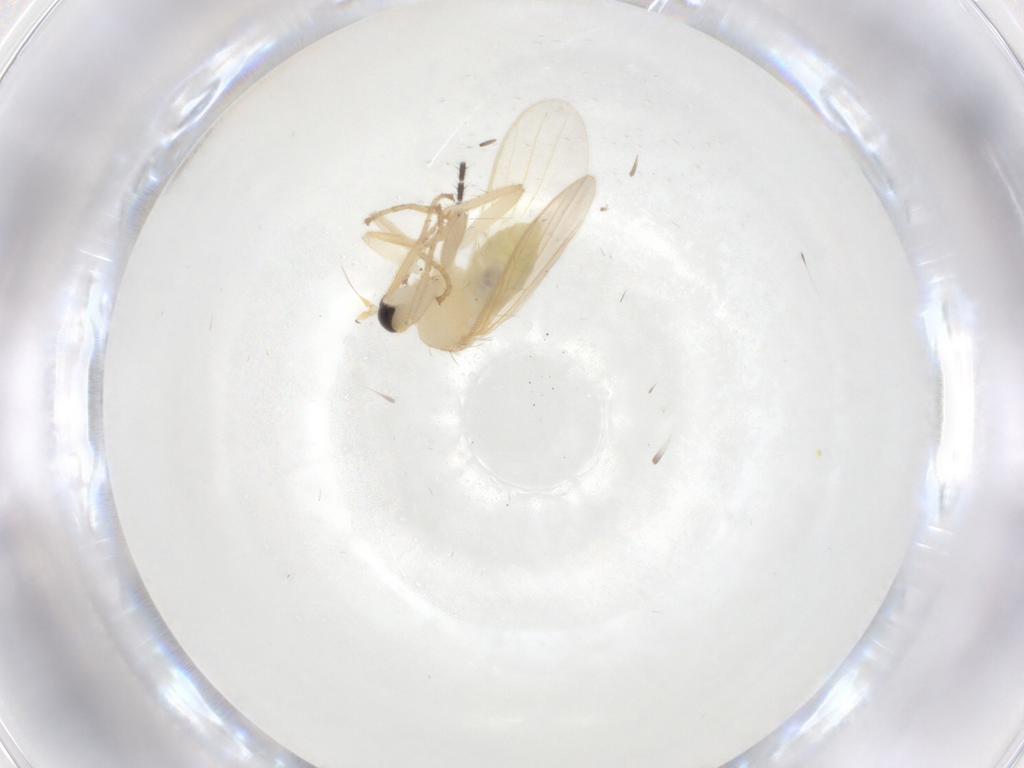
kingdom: Animalia
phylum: Arthropoda
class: Insecta
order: Diptera
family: Hybotidae
